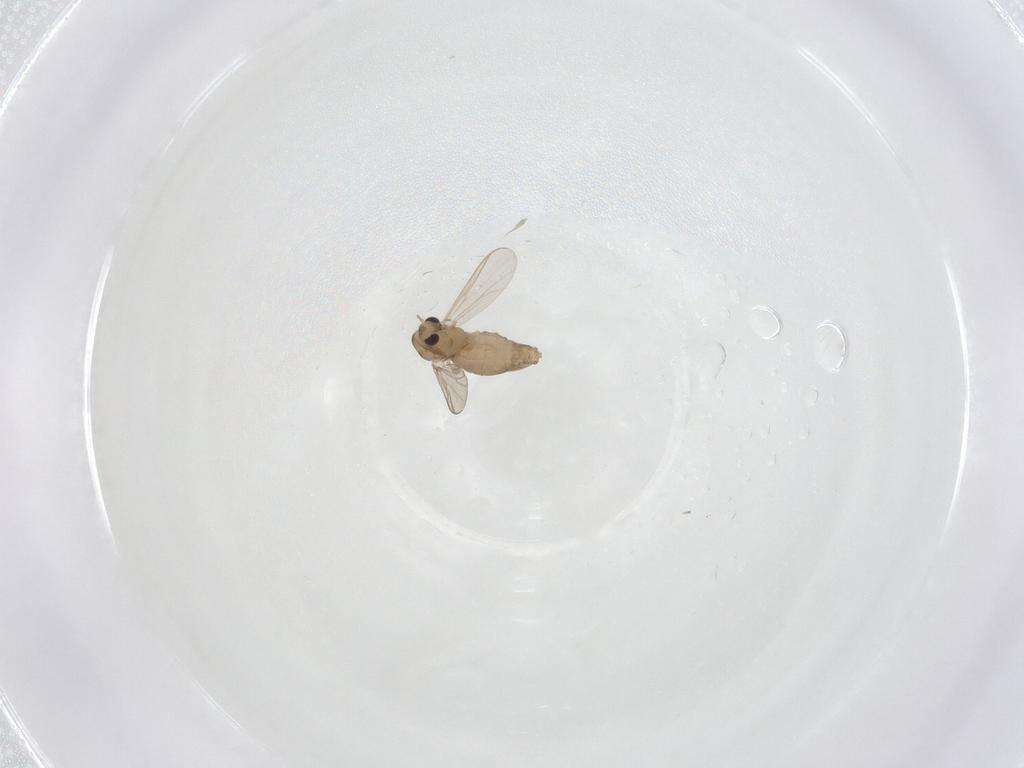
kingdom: Animalia
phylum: Arthropoda
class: Insecta
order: Diptera
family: Chironomidae
